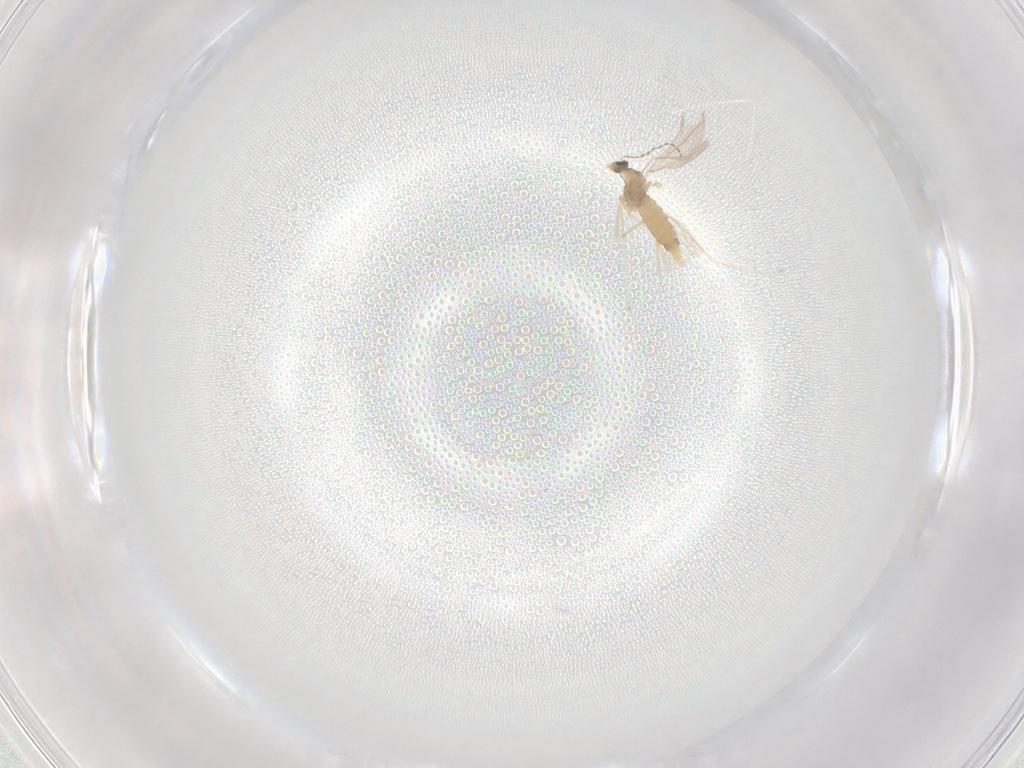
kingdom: Animalia
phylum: Arthropoda
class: Insecta
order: Diptera
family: Cecidomyiidae
